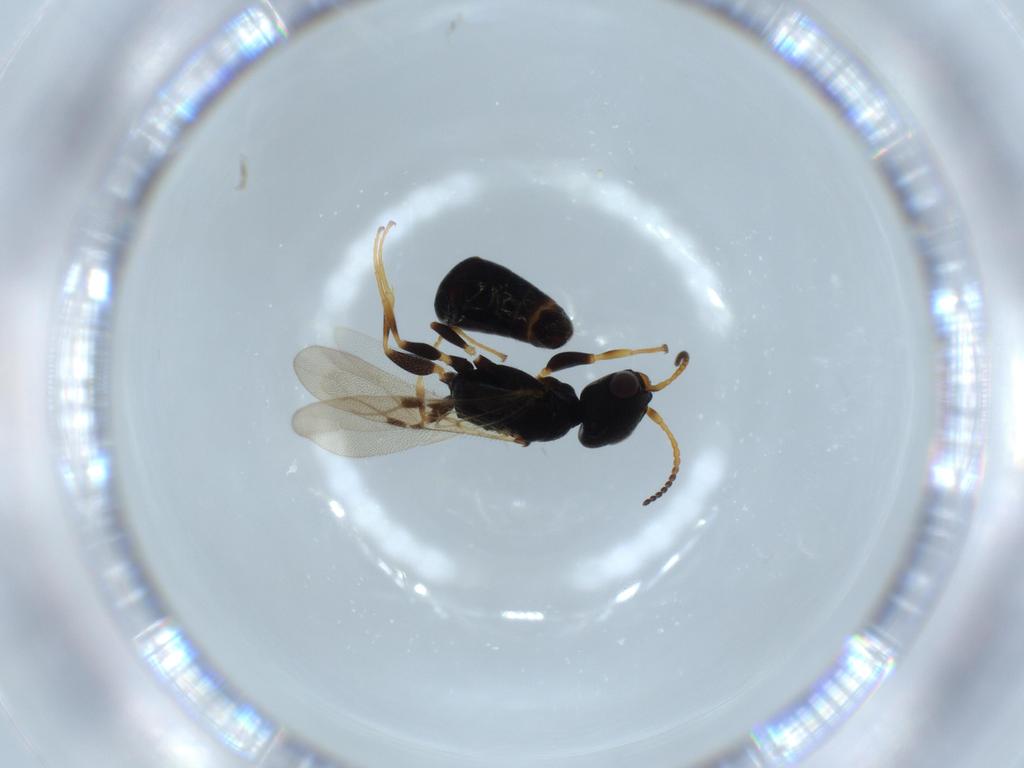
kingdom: Animalia
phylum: Arthropoda
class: Insecta
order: Hymenoptera
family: Bethylidae
